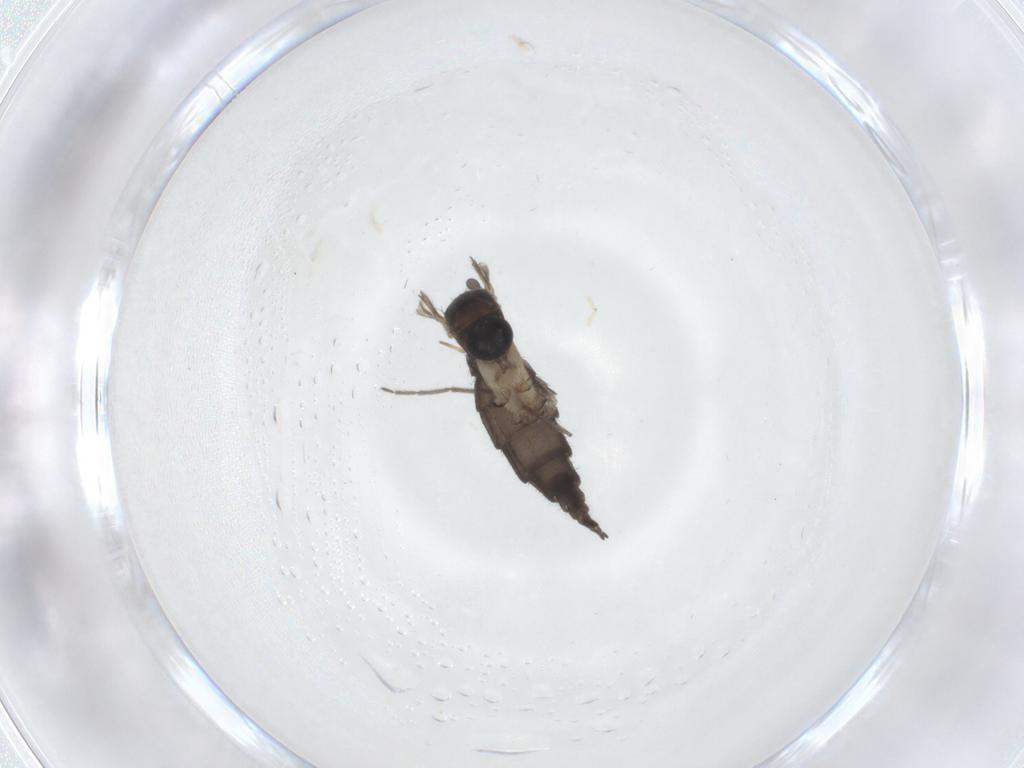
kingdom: Animalia
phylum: Arthropoda
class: Insecta
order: Diptera
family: Sciaridae
